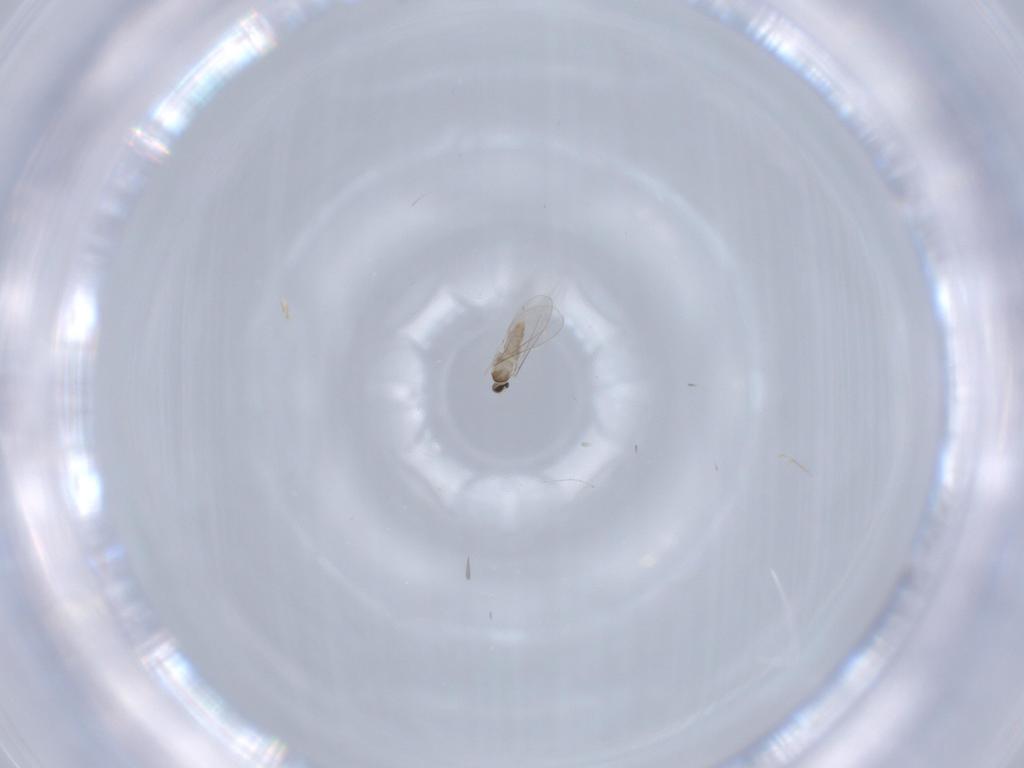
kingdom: Animalia
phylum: Arthropoda
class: Insecta
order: Diptera
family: Cecidomyiidae
